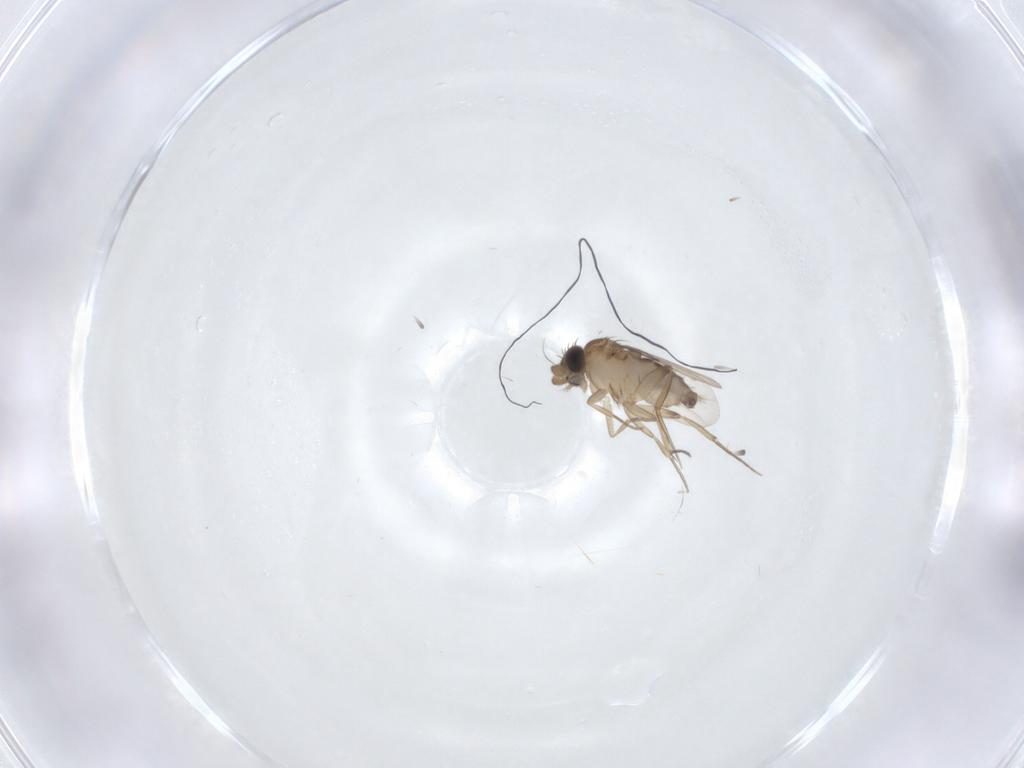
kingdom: Animalia
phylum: Arthropoda
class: Insecta
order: Diptera
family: Phoridae
